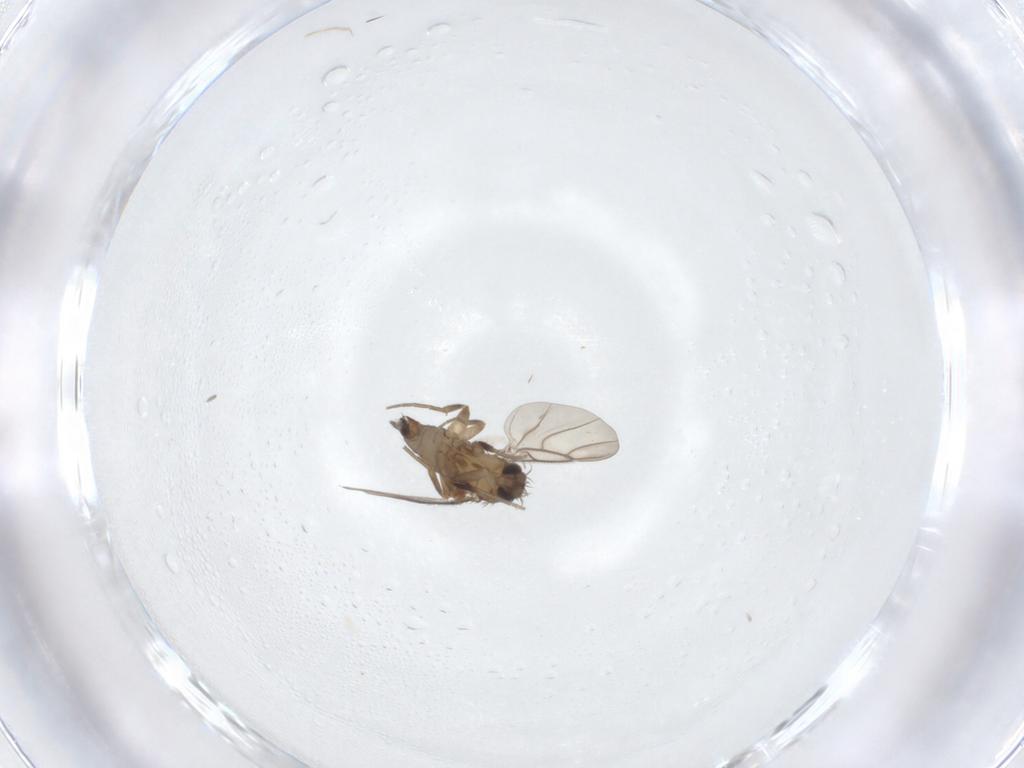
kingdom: Animalia
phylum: Arthropoda
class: Insecta
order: Diptera
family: Phoridae
